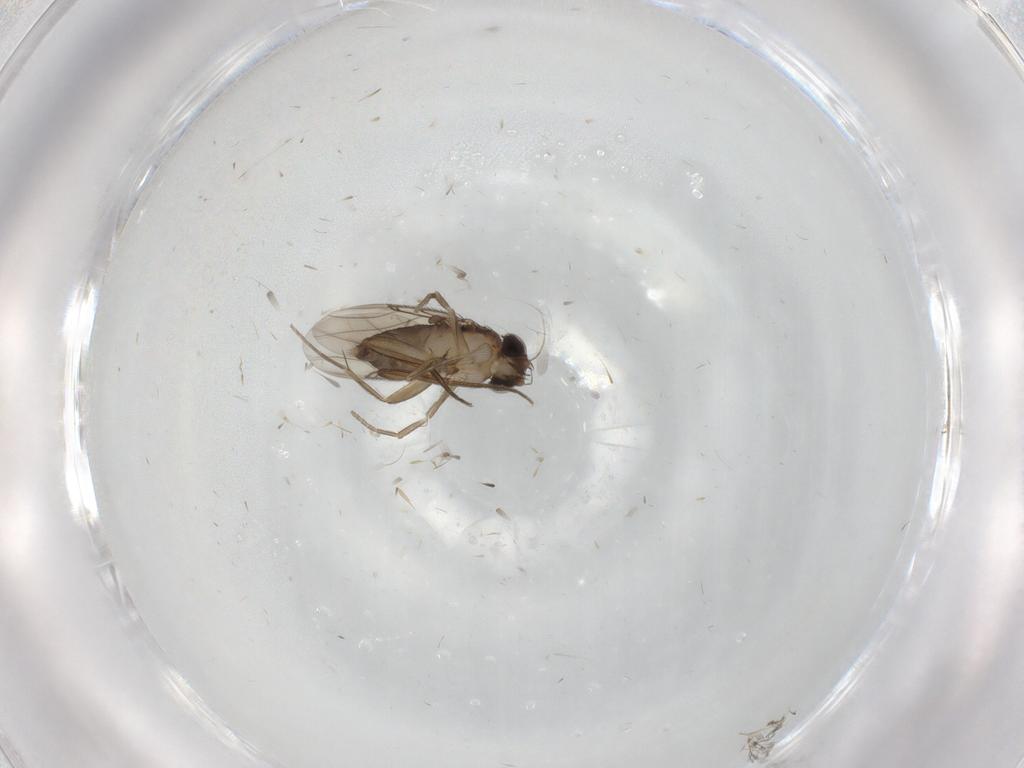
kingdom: Animalia
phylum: Arthropoda
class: Insecta
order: Diptera
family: Phoridae
